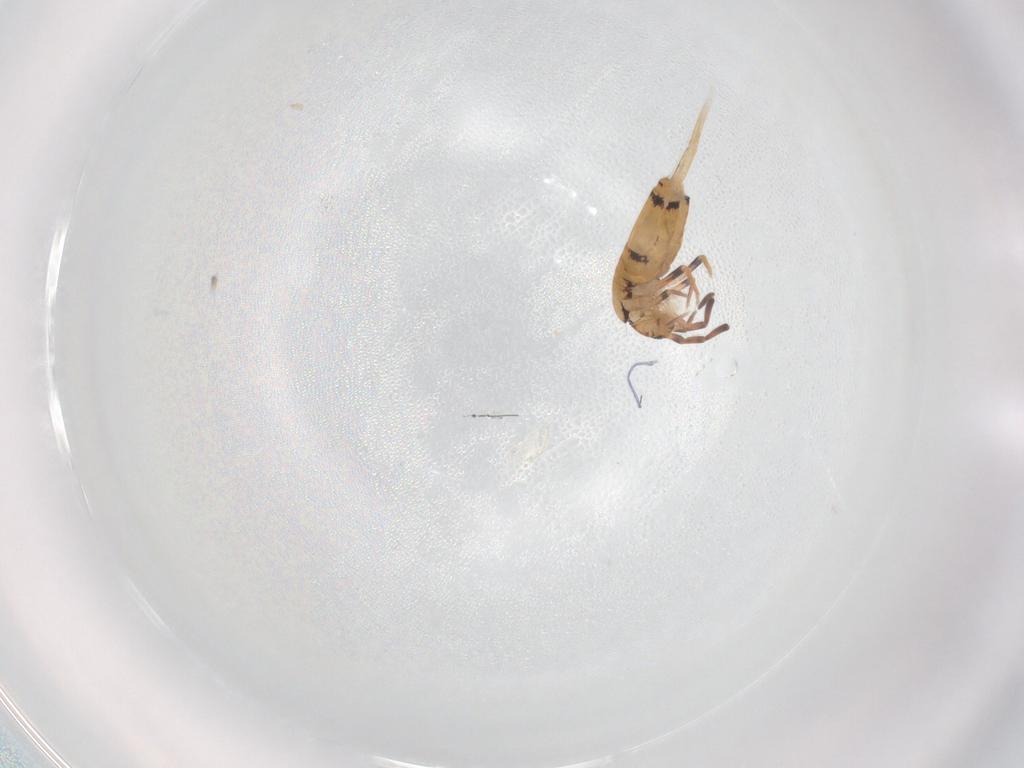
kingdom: Animalia
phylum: Arthropoda
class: Collembola
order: Entomobryomorpha
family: Entomobryidae
